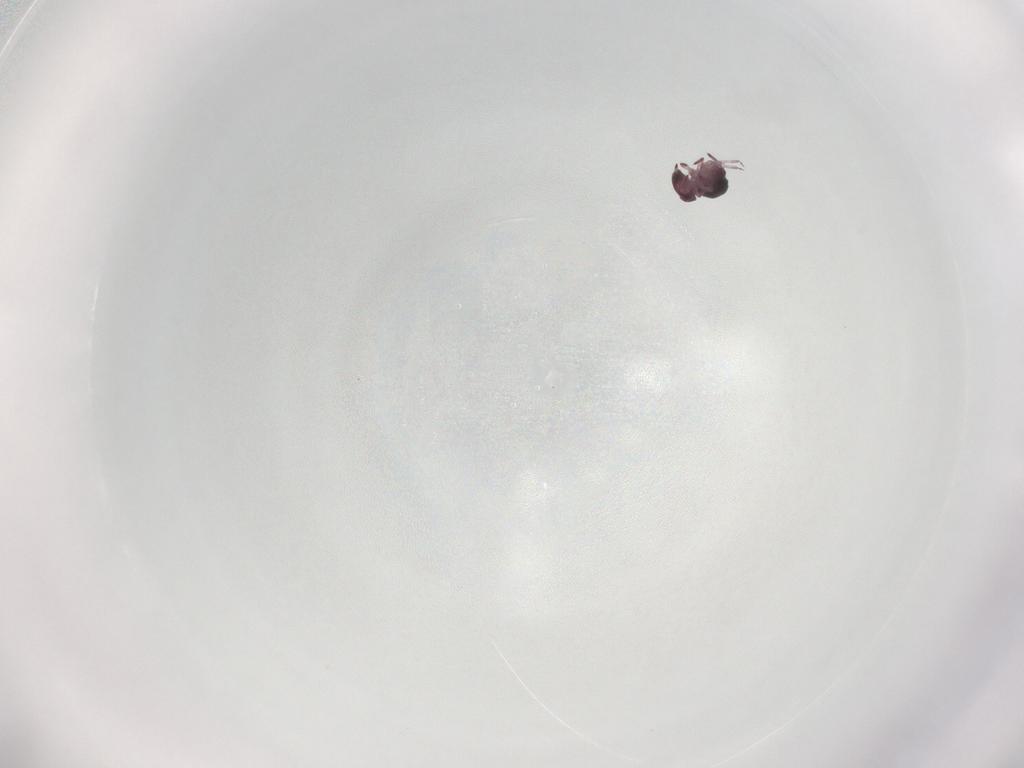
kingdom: Animalia
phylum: Arthropoda
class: Collembola
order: Symphypleona
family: Sminthurididae
